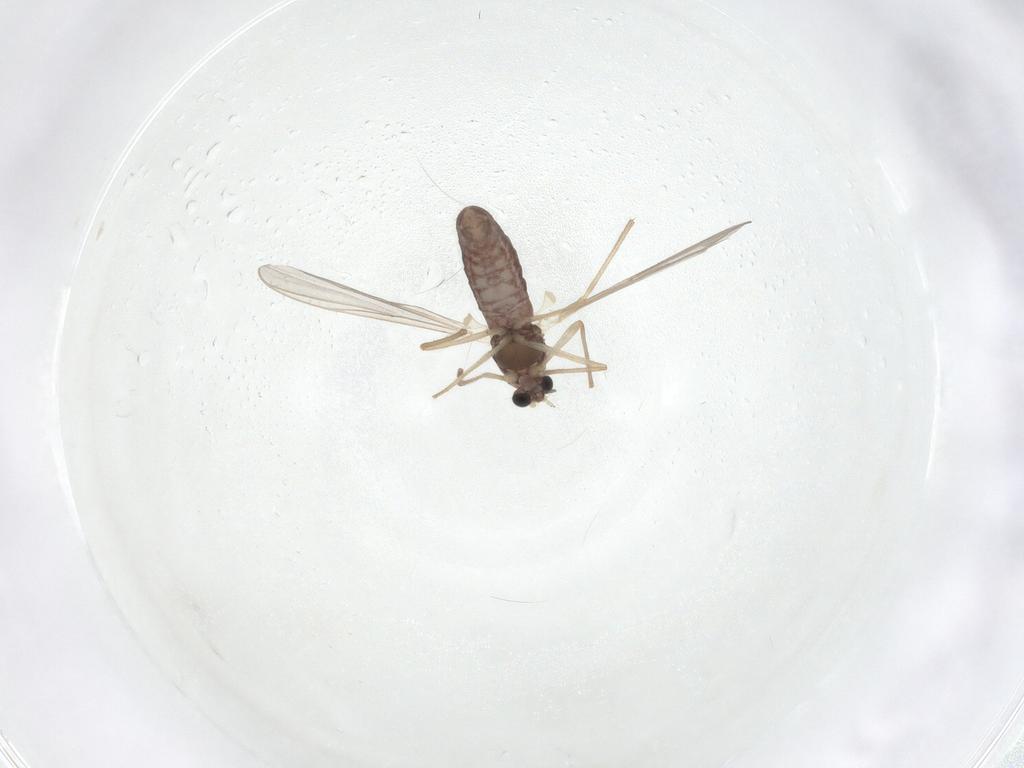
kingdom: Animalia
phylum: Arthropoda
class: Insecta
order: Diptera
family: Chironomidae
